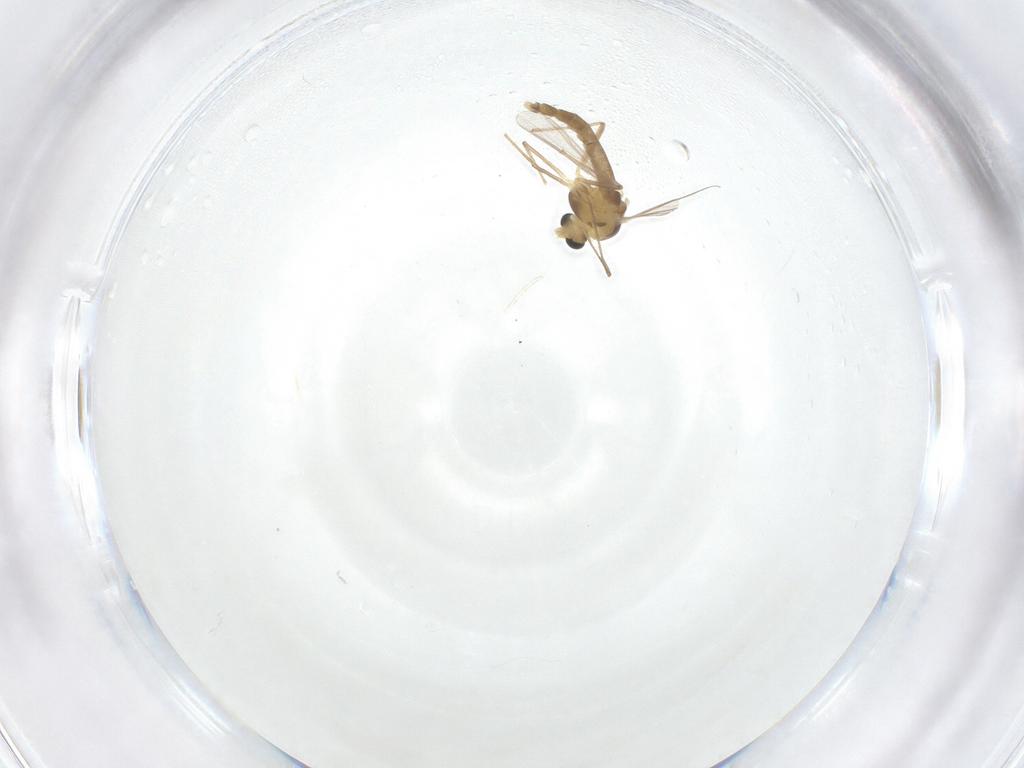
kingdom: Animalia
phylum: Arthropoda
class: Insecta
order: Diptera
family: Chironomidae
